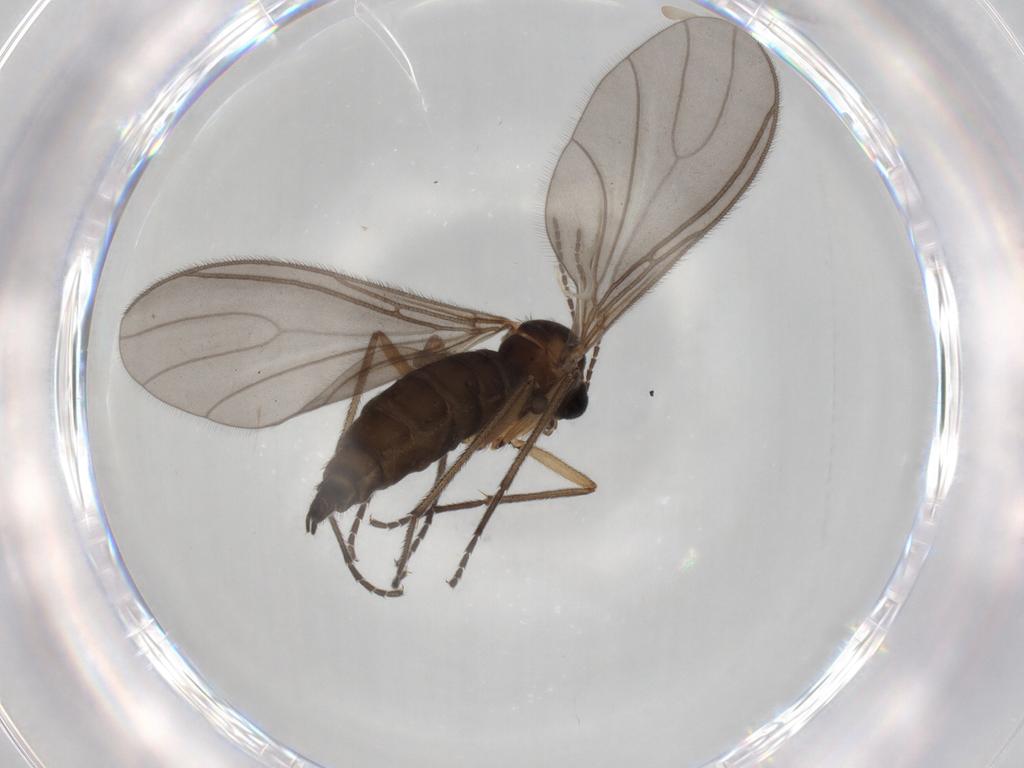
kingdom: Animalia
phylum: Arthropoda
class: Insecta
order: Diptera
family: Sciaridae
